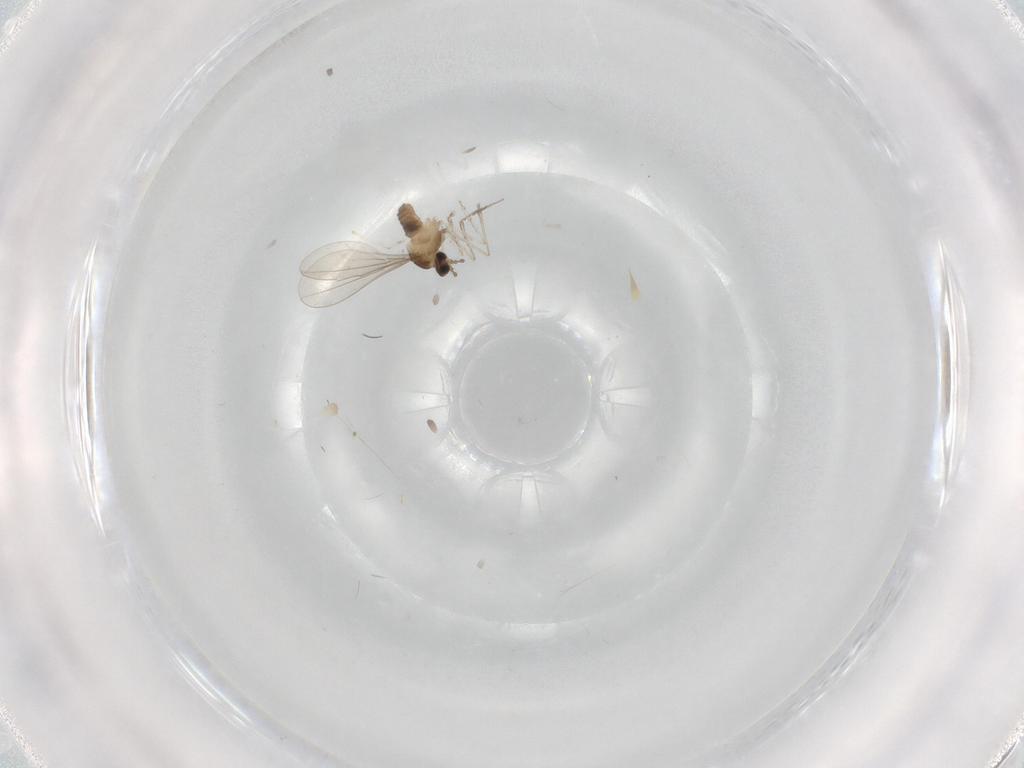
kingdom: Animalia
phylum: Arthropoda
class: Insecta
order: Diptera
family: Cecidomyiidae
